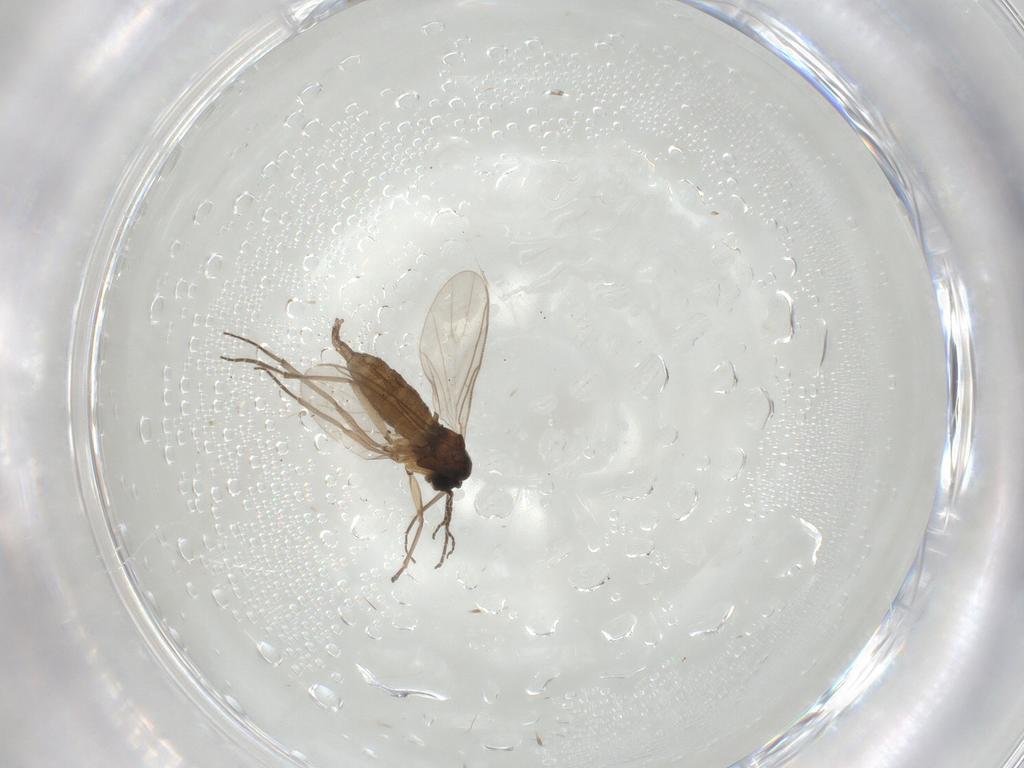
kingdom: Animalia
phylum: Arthropoda
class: Insecta
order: Diptera
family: Sciaridae
